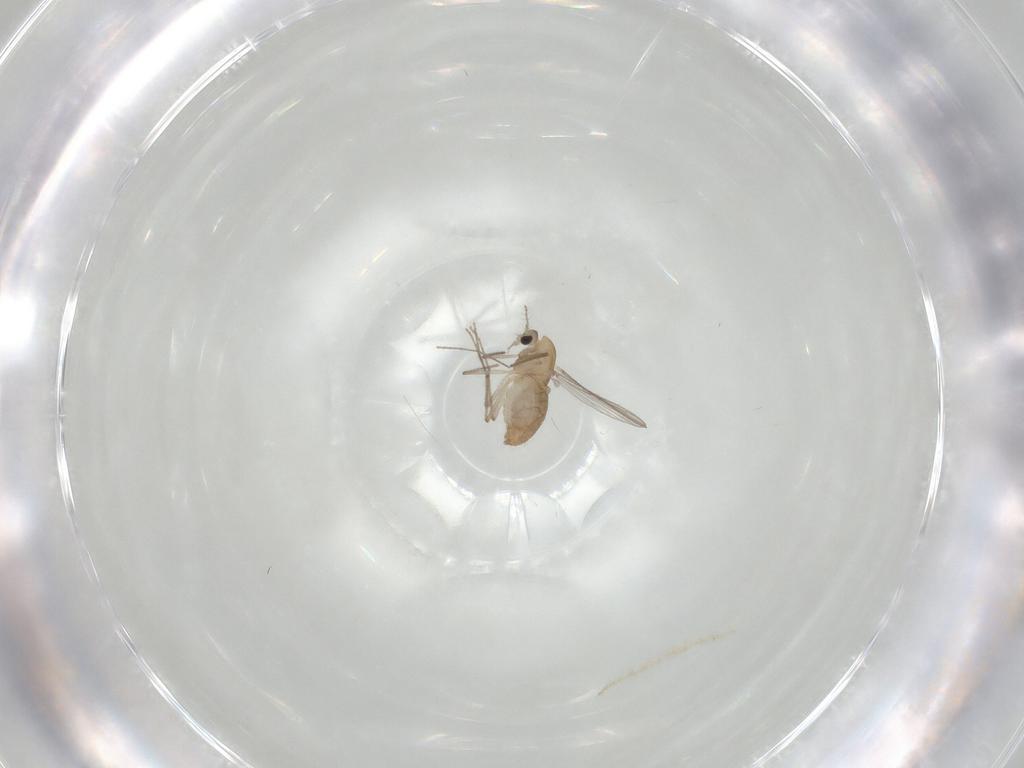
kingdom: Animalia
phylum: Arthropoda
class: Insecta
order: Diptera
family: Chironomidae
